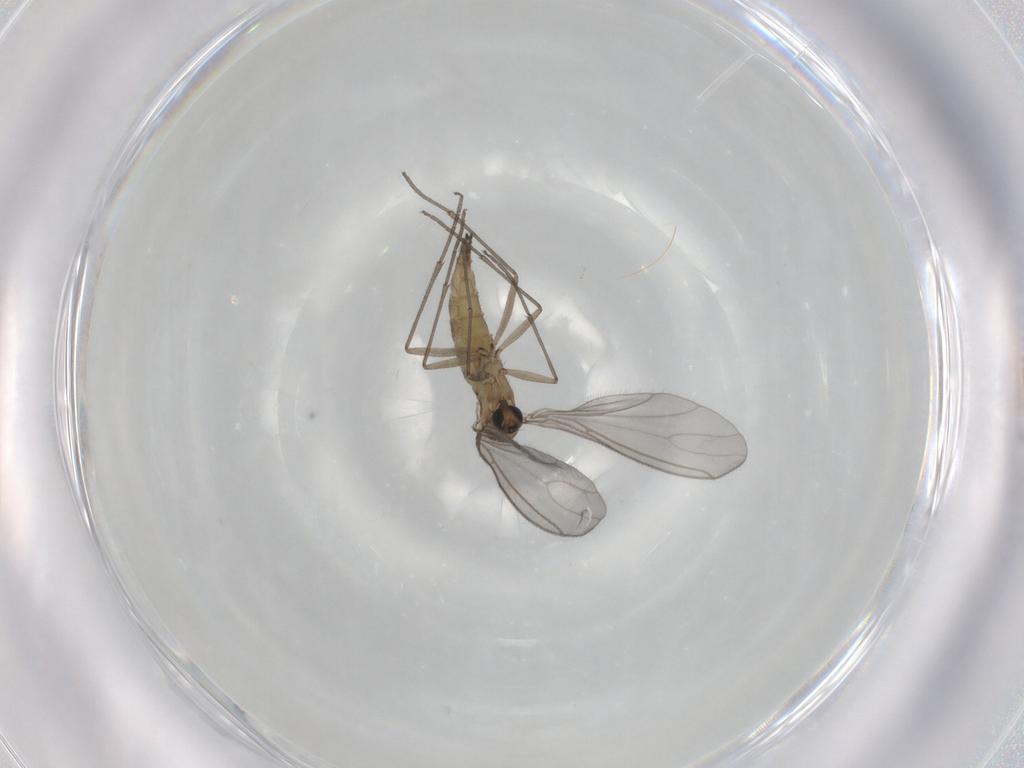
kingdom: Animalia
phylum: Arthropoda
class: Insecta
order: Diptera
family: Sciaridae
